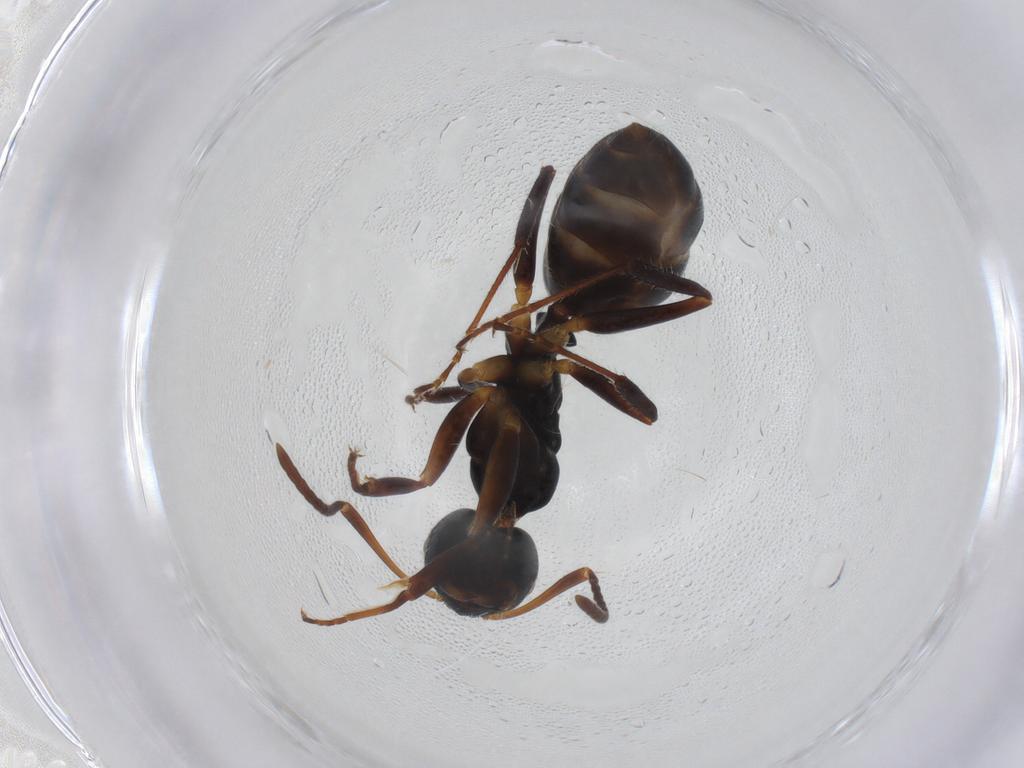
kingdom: Animalia
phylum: Arthropoda
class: Insecta
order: Hymenoptera
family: Formicidae
